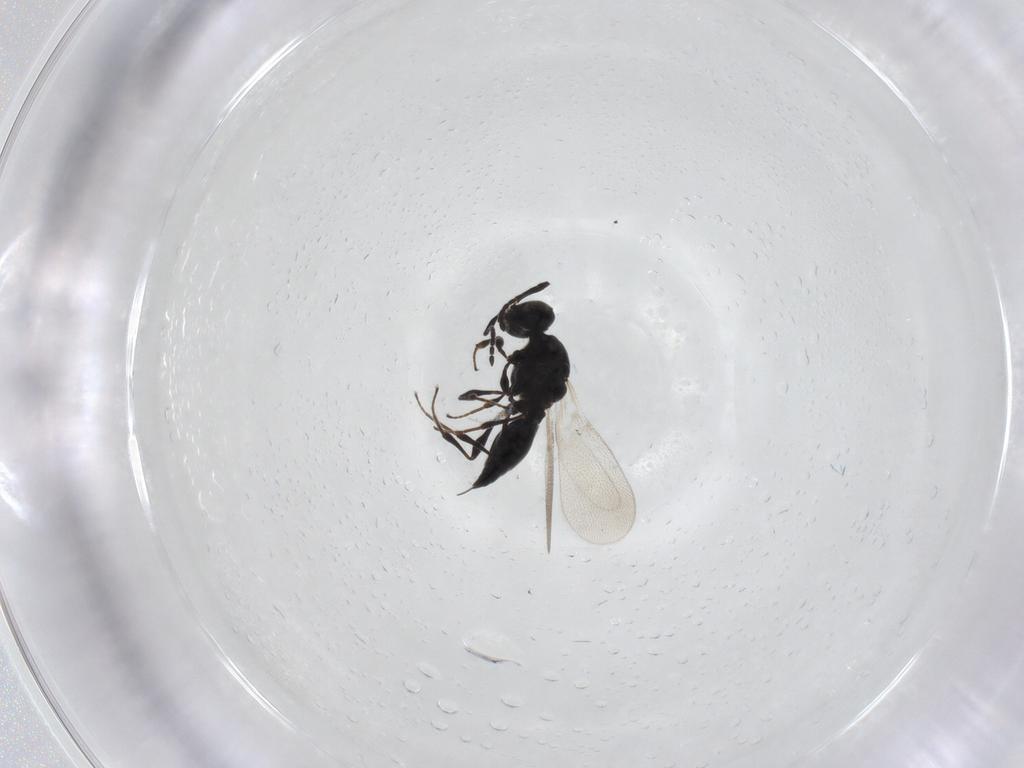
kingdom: Animalia
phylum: Arthropoda
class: Insecta
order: Hymenoptera
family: Platygastridae
